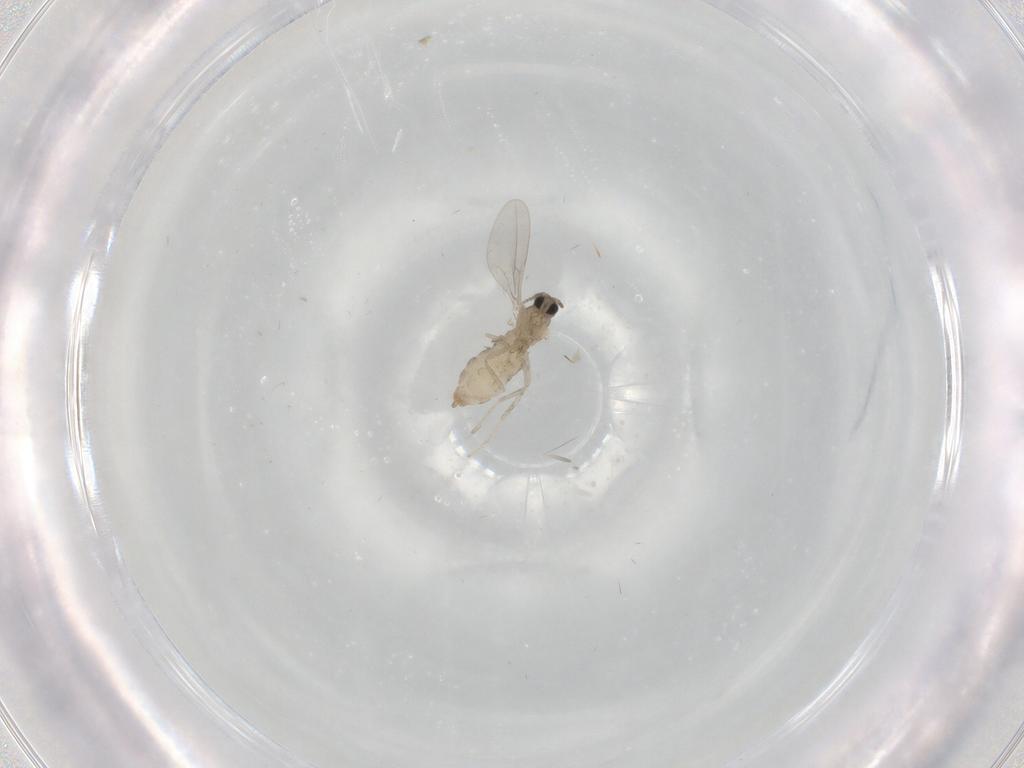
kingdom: Animalia
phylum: Arthropoda
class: Insecta
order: Diptera
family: Cecidomyiidae
